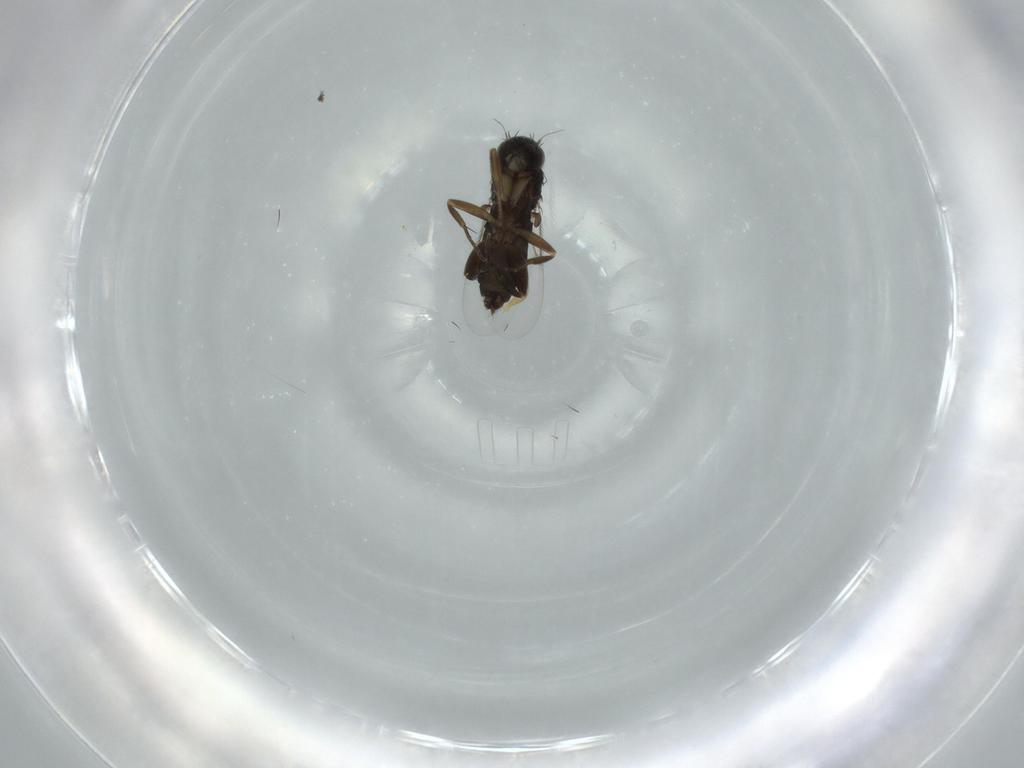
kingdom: Animalia
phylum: Arthropoda
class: Insecta
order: Diptera
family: Phoridae
